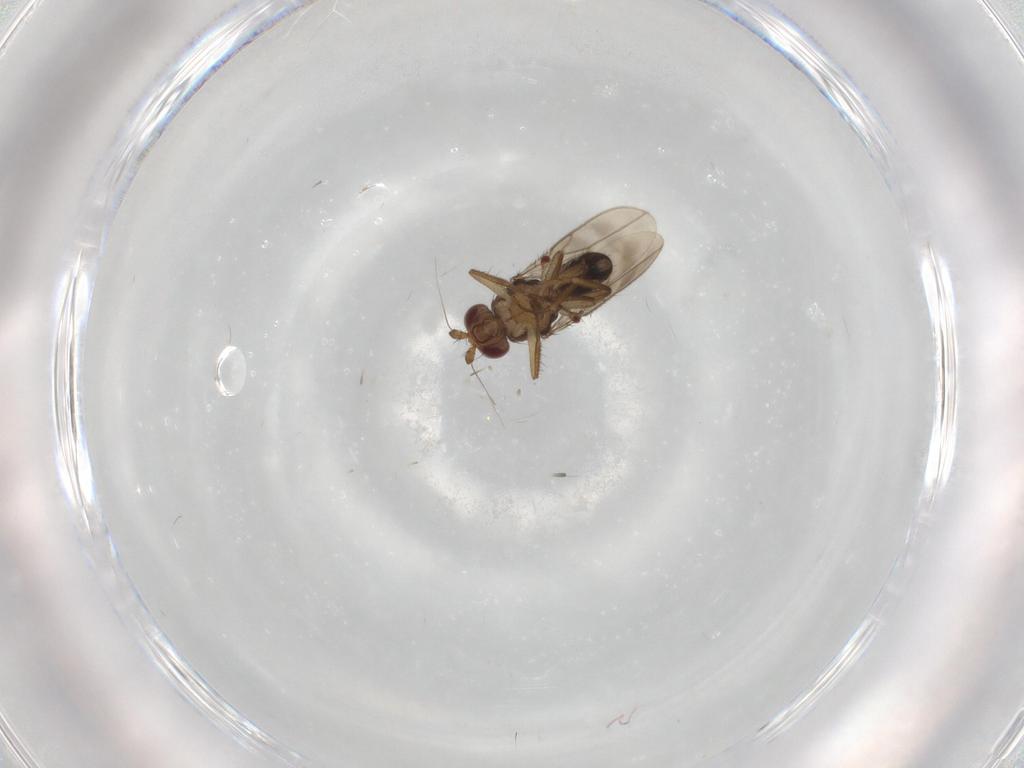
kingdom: Animalia
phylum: Arthropoda
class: Insecta
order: Diptera
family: Sphaeroceridae
